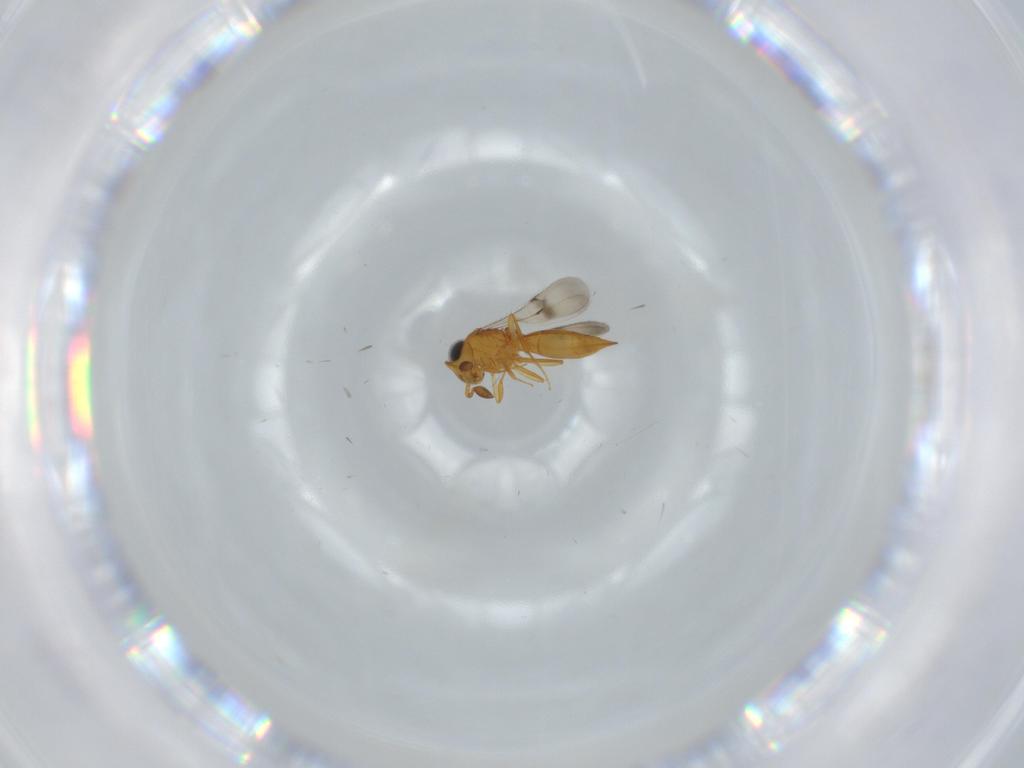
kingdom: Animalia
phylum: Arthropoda
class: Insecta
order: Hymenoptera
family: Scelionidae
